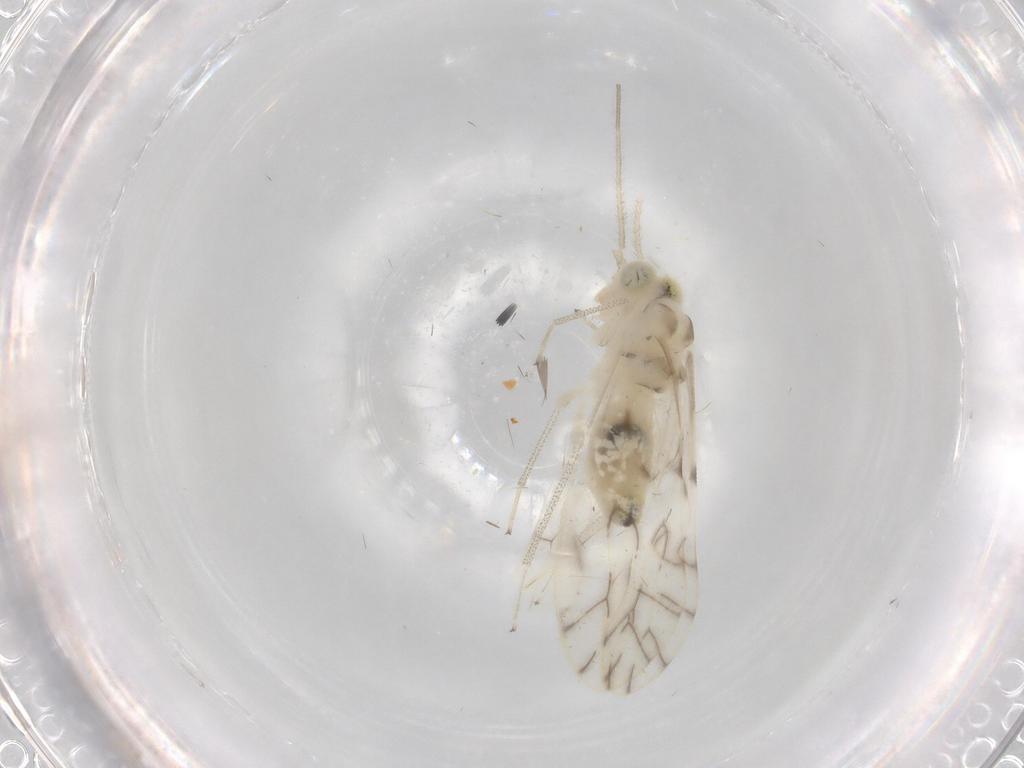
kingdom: Animalia
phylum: Arthropoda
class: Insecta
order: Psocodea
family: Caeciliusidae
